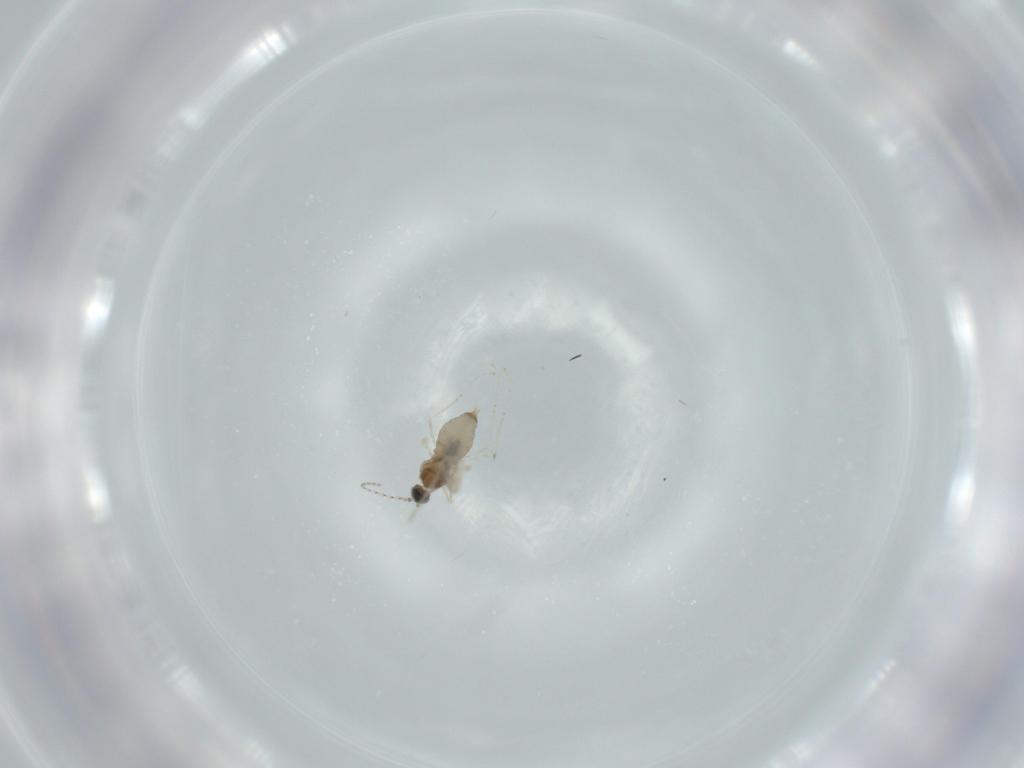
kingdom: Animalia
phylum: Arthropoda
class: Insecta
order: Diptera
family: Cecidomyiidae
